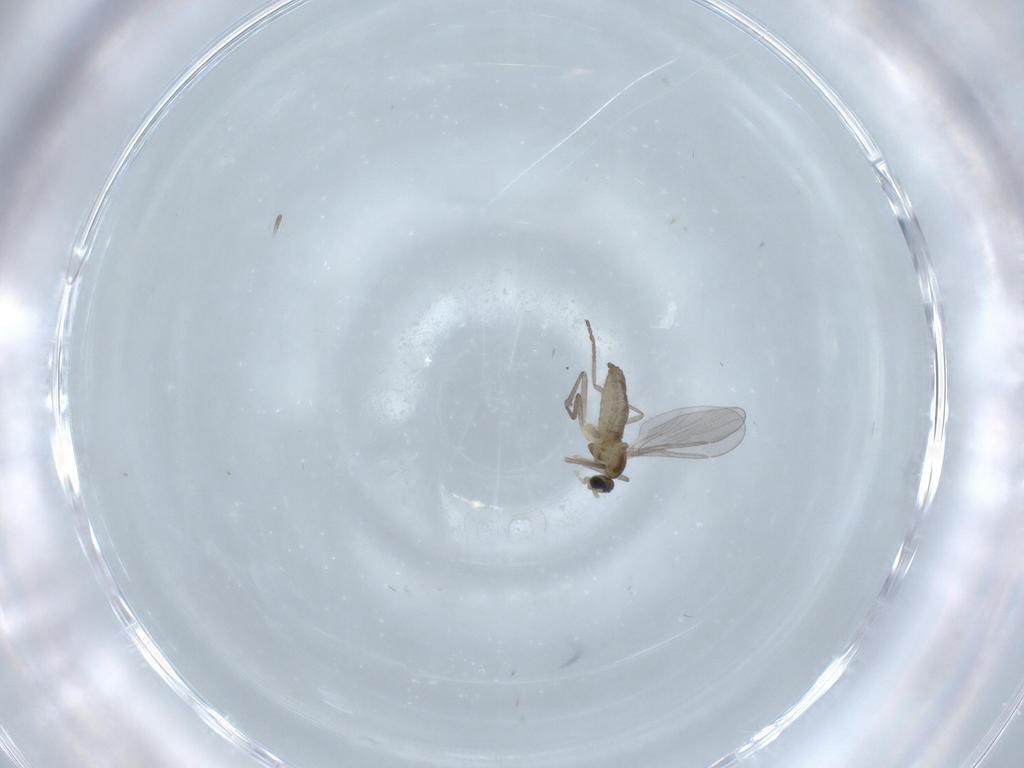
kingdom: Animalia
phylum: Arthropoda
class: Insecta
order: Diptera
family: Cecidomyiidae
